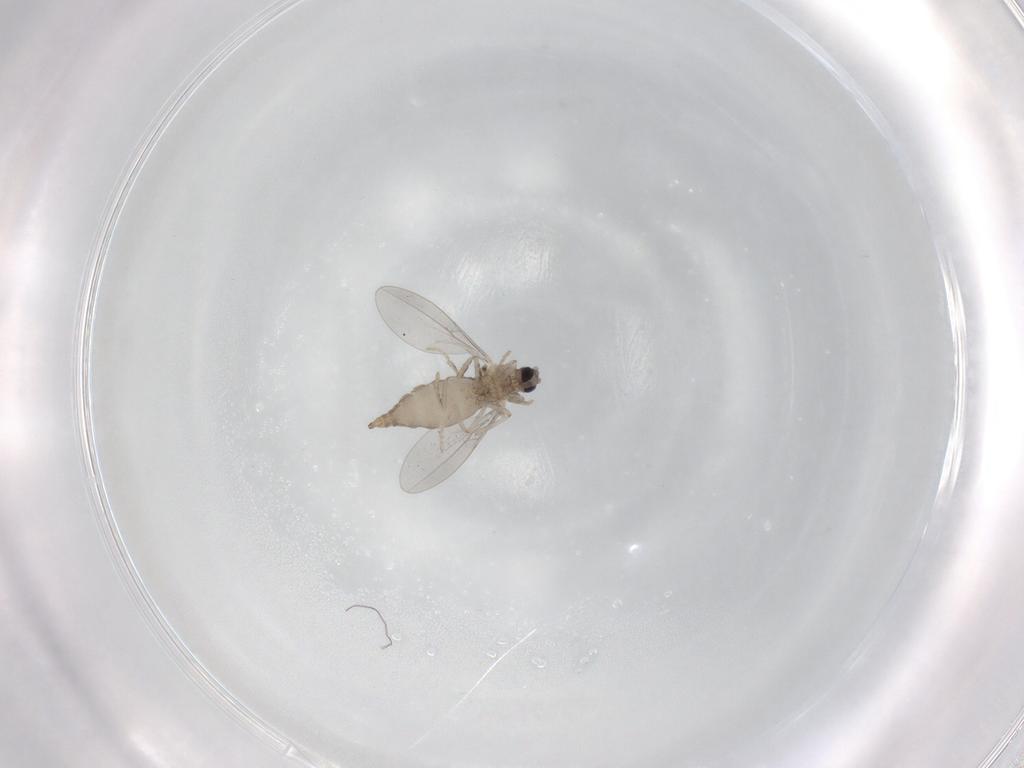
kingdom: Animalia
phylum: Arthropoda
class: Insecta
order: Diptera
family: Cecidomyiidae
